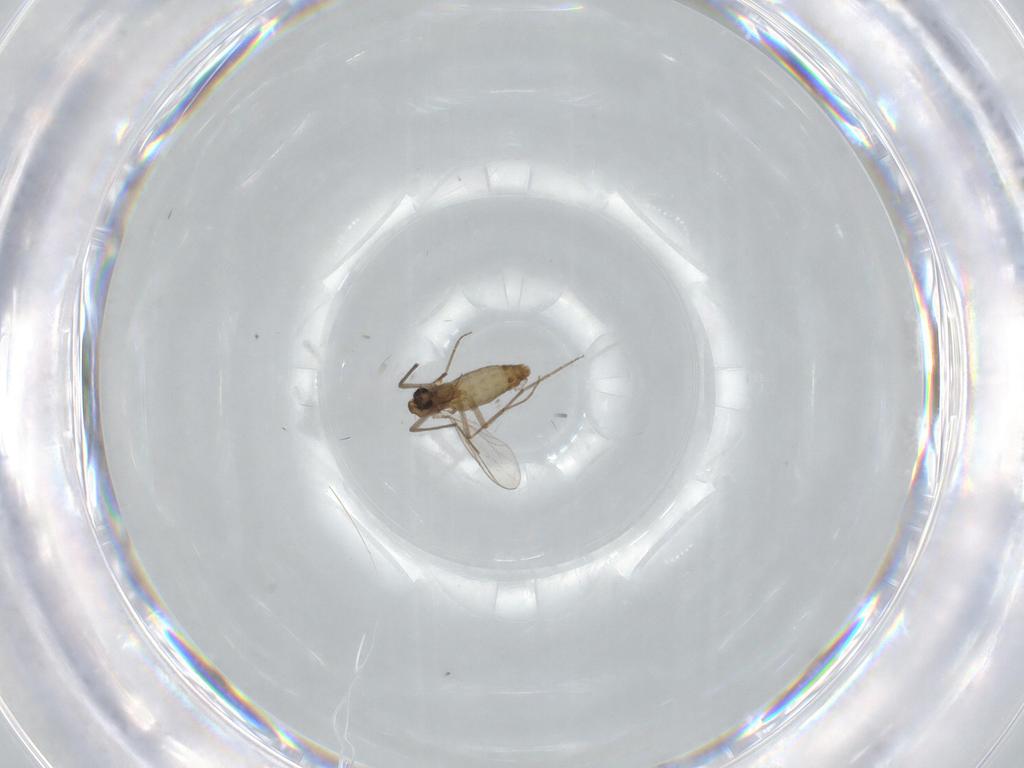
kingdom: Animalia
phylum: Arthropoda
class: Insecta
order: Diptera
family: Chironomidae
